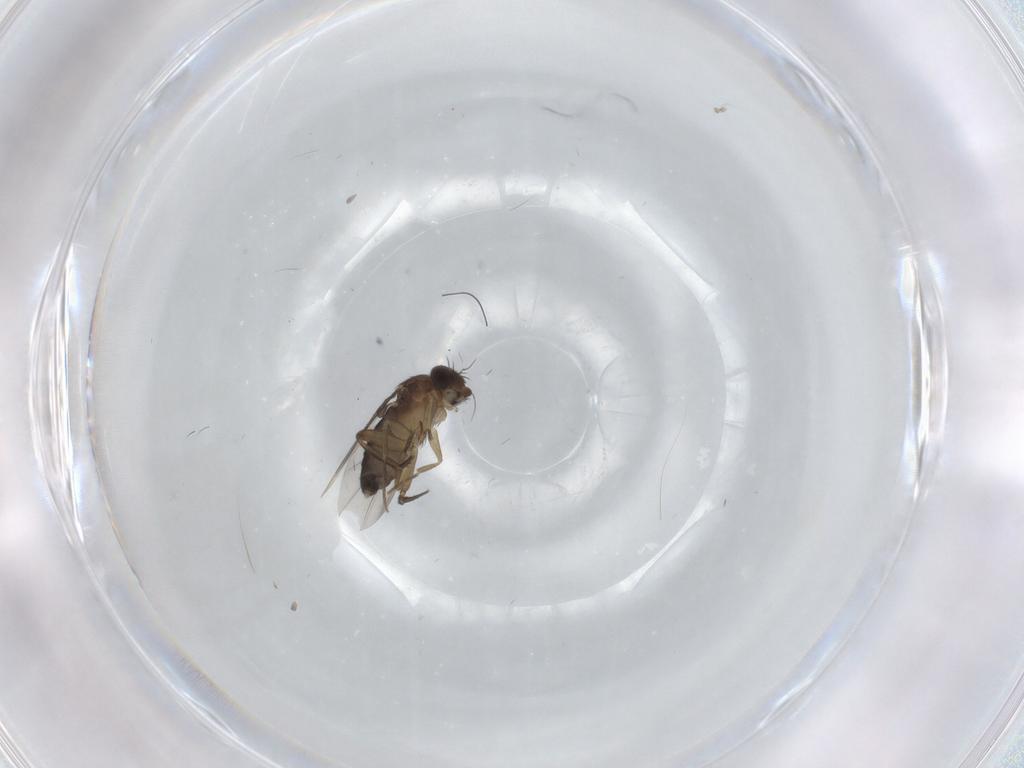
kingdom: Animalia
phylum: Arthropoda
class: Insecta
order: Diptera
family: Phoridae
